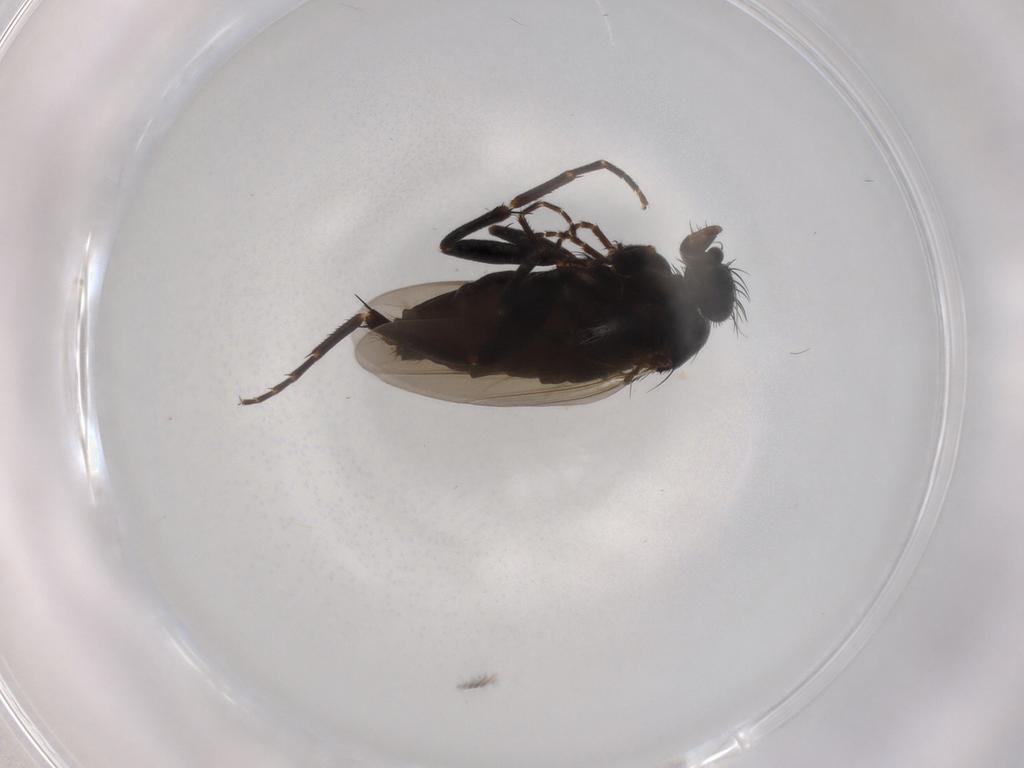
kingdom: Animalia
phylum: Arthropoda
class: Insecta
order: Diptera
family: Phoridae
